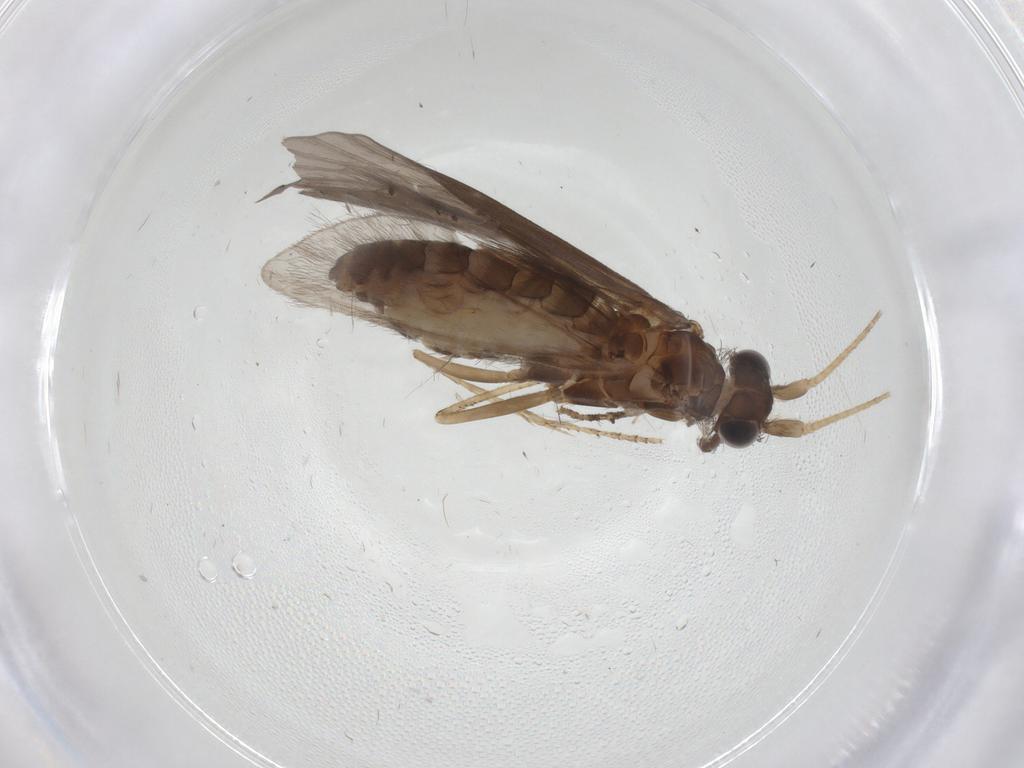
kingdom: Animalia
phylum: Arthropoda
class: Insecta
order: Trichoptera
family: Helicopsychidae
